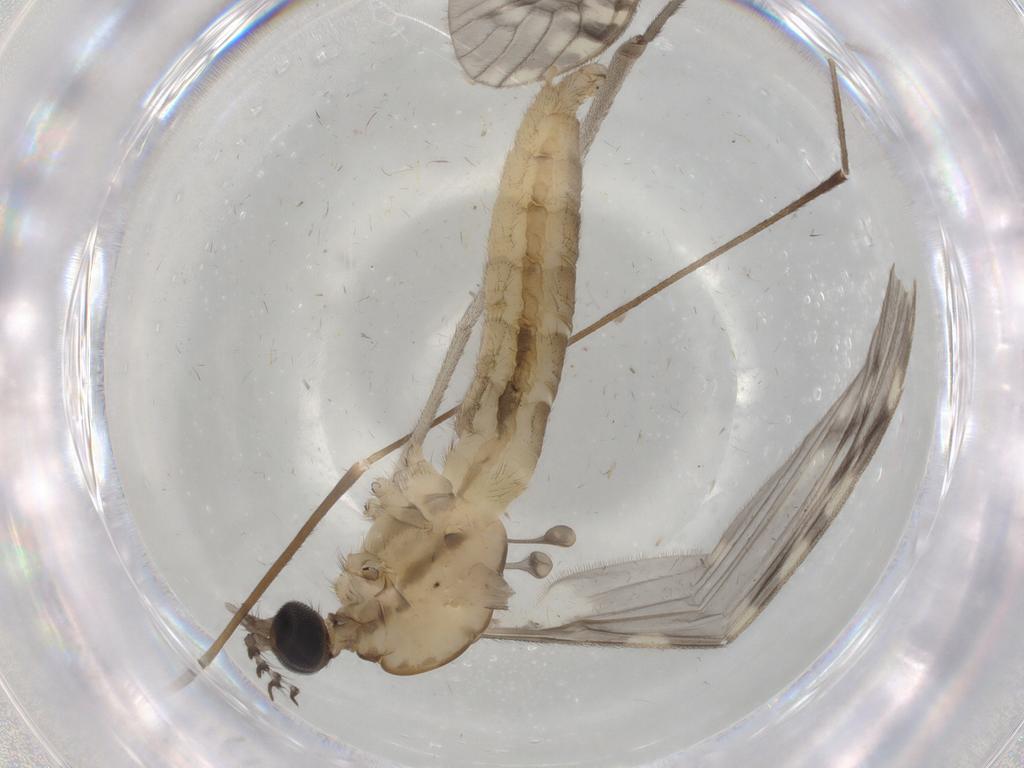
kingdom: Animalia
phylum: Arthropoda
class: Insecta
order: Diptera
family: Limoniidae
